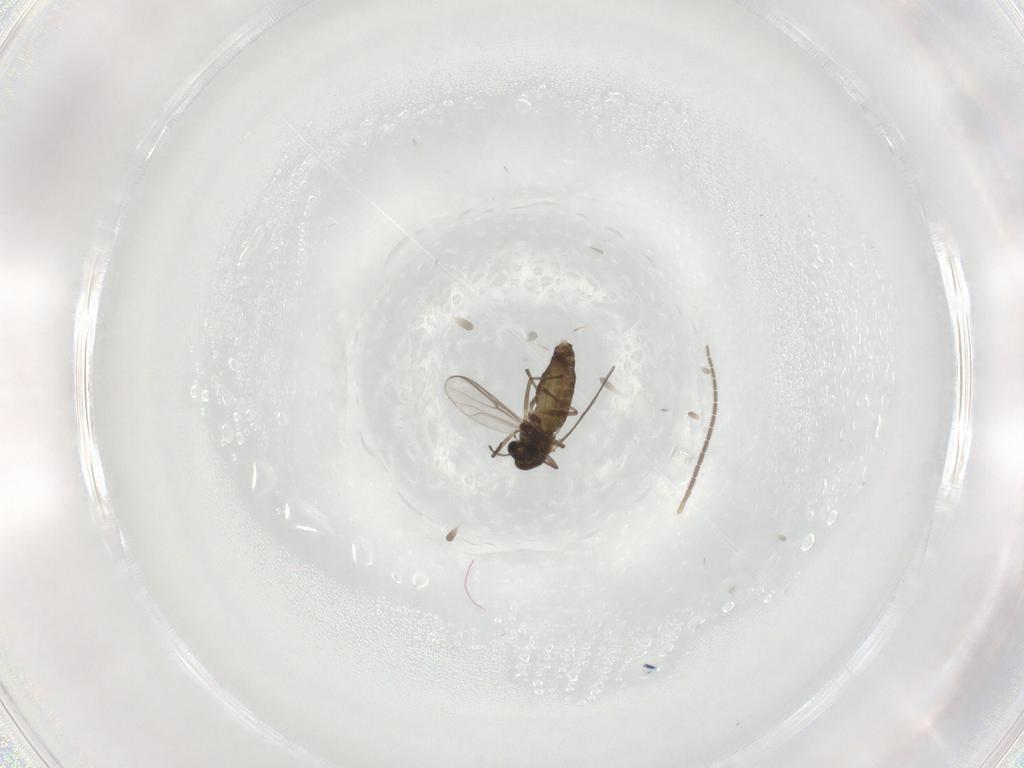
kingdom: Animalia
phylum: Arthropoda
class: Insecta
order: Diptera
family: Chironomidae
